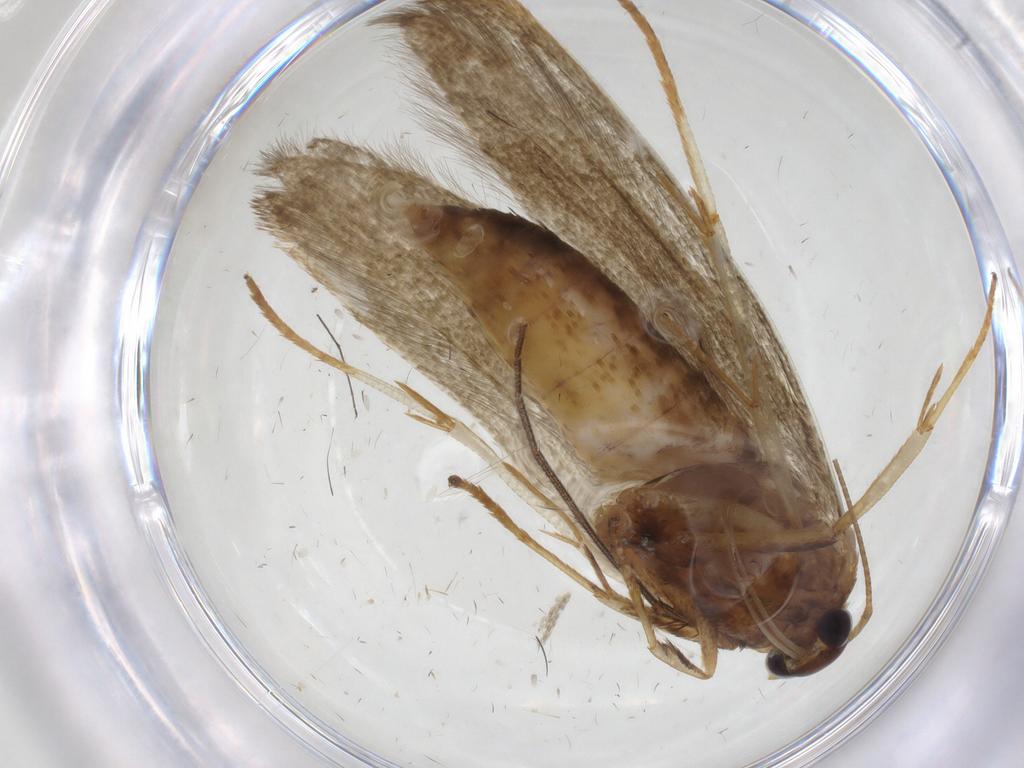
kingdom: Animalia
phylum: Arthropoda
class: Insecta
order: Lepidoptera
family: Blastobasidae
